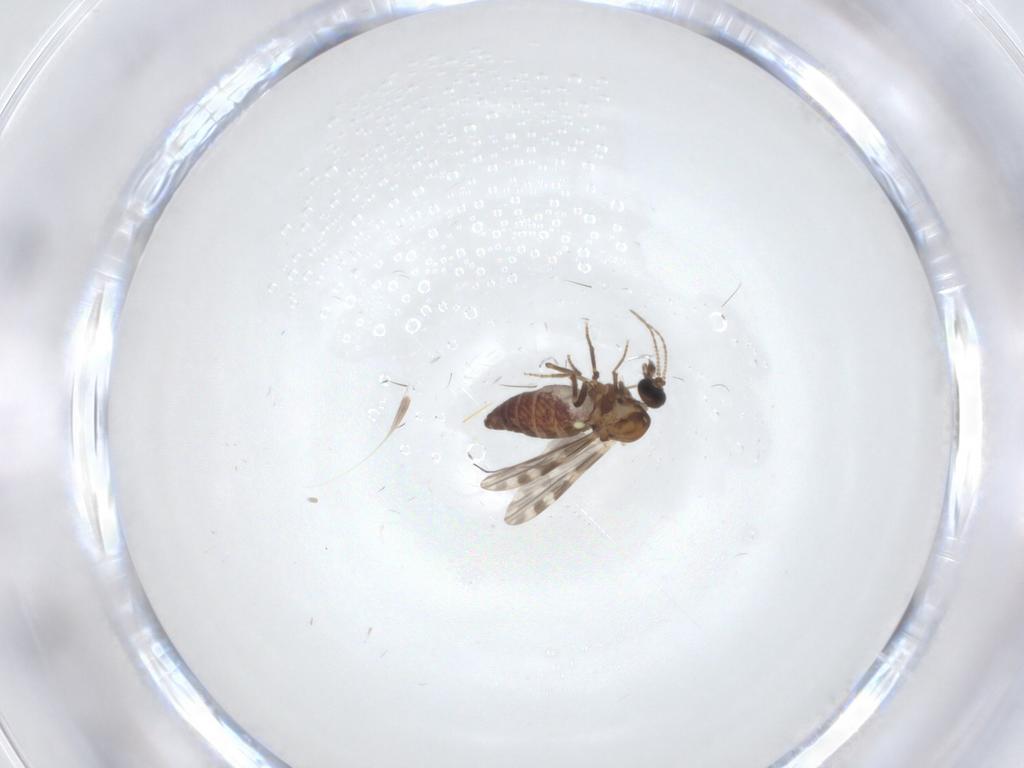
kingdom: Animalia
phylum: Arthropoda
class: Insecta
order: Diptera
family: Ceratopogonidae
